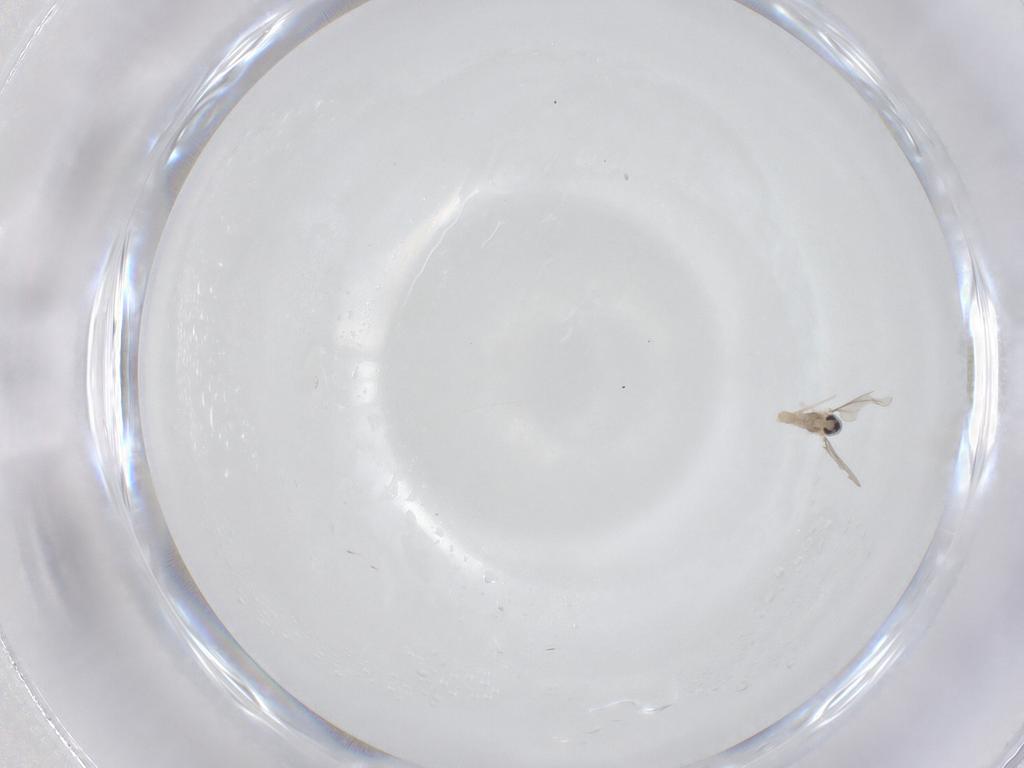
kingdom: Animalia
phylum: Arthropoda
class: Insecta
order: Diptera
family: Cecidomyiidae
